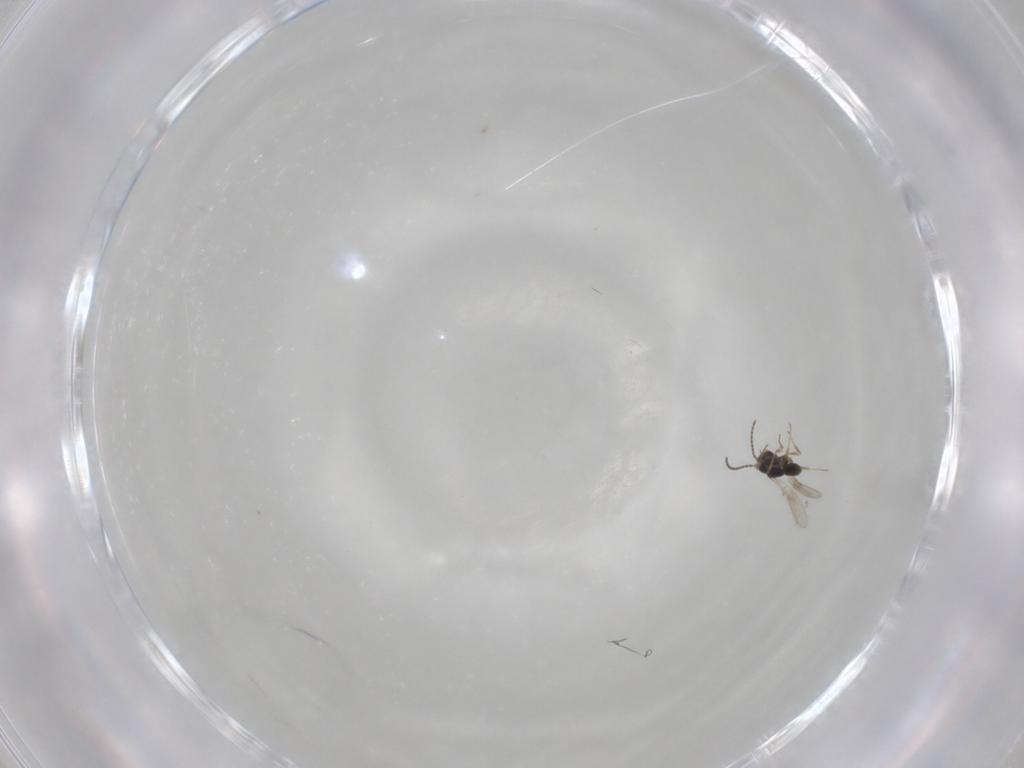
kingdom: Animalia
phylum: Arthropoda
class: Insecta
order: Hymenoptera
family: Scelionidae
